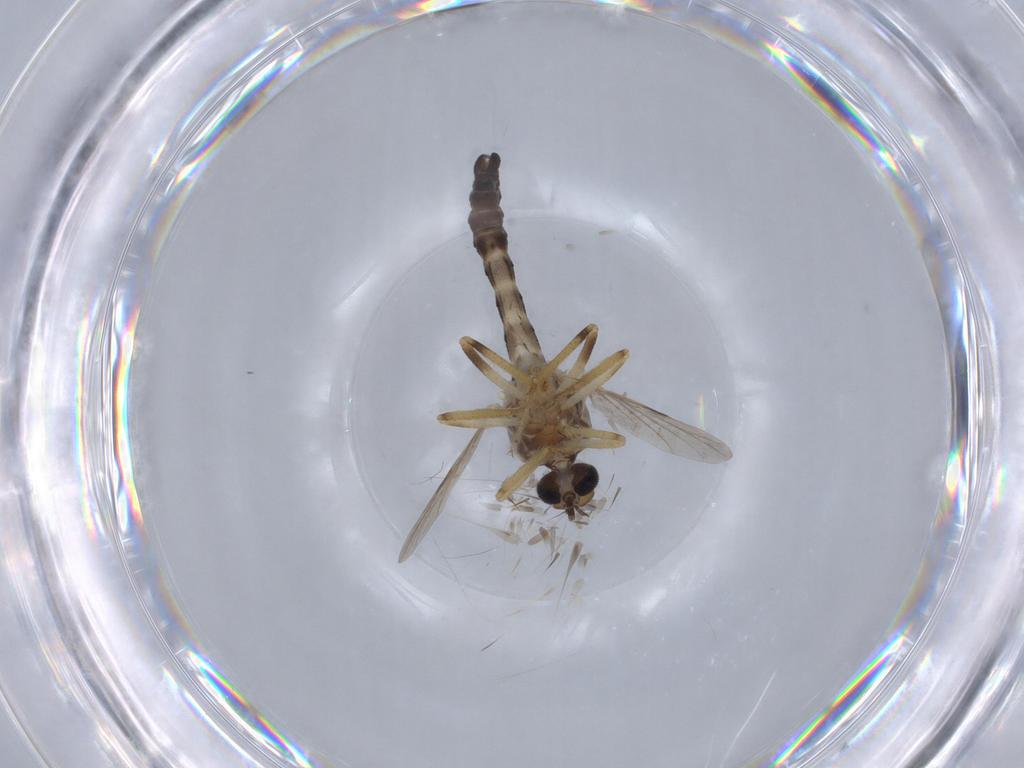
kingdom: Animalia
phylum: Arthropoda
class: Insecta
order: Diptera
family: Ceratopogonidae
